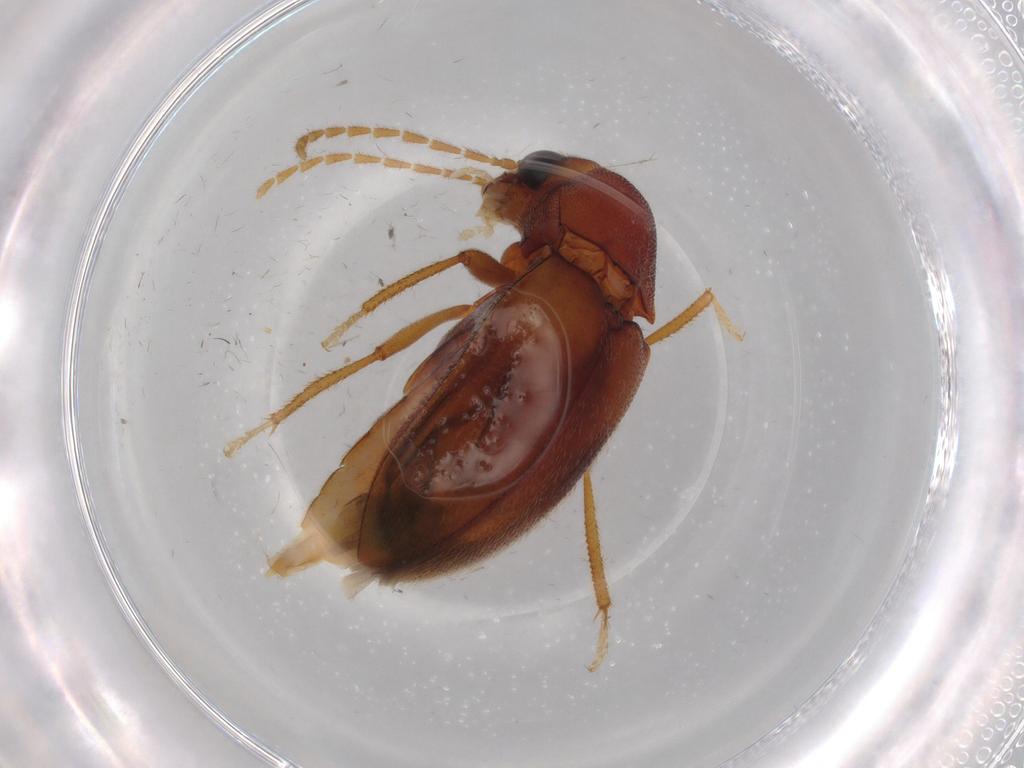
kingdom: Animalia
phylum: Arthropoda
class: Insecta
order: Coleoptera
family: Ptilodactylidae
